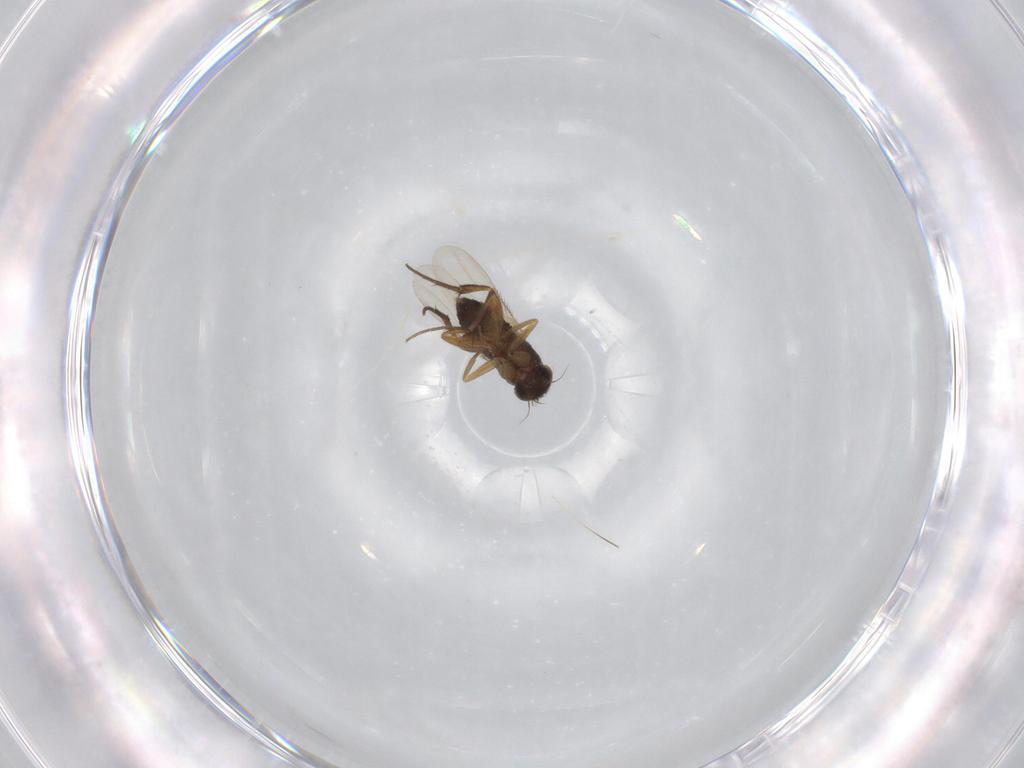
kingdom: Animalia
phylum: Arthropoda
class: Insecta
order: Diptera
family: Phoridae
